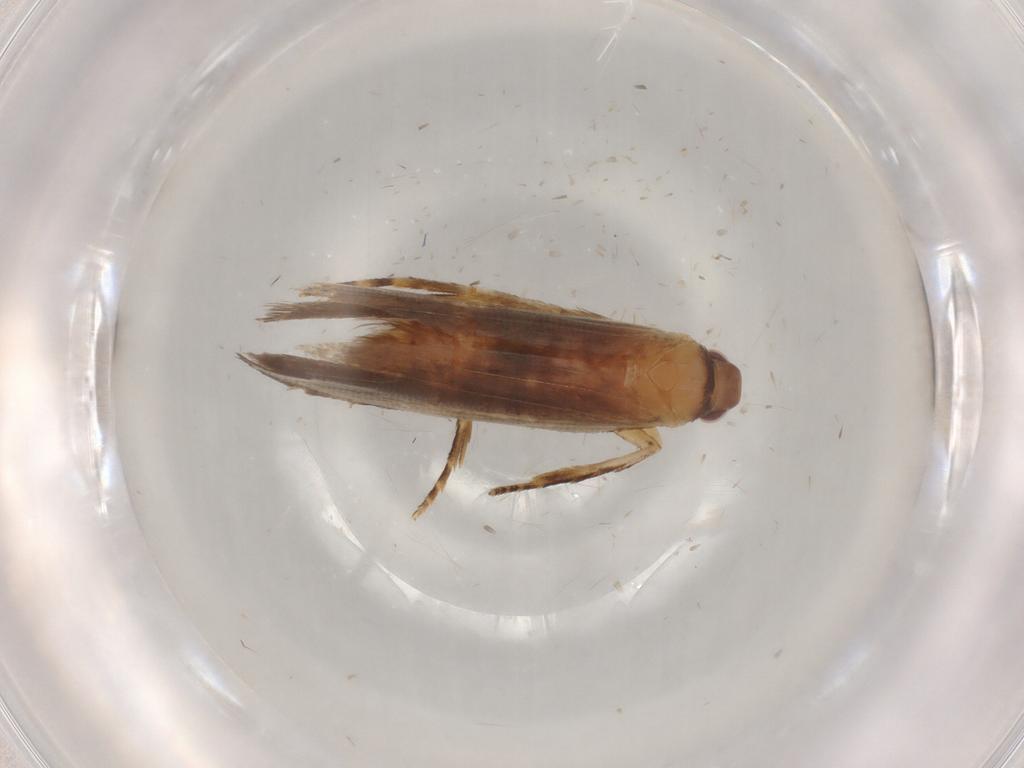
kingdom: Animalia
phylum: Arthropoda
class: Insecta
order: Lepidoptera
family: Gelechiidae
